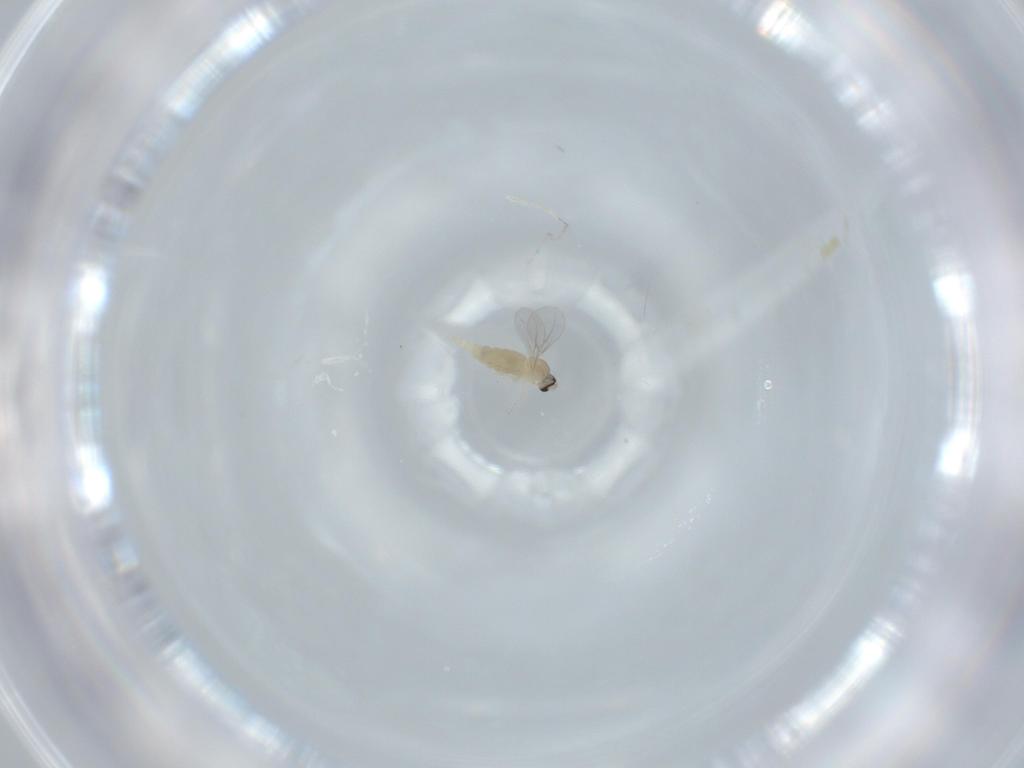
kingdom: Animalia
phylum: Arthropoda
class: Insecta
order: Diptera
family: Cecidomyiidae
